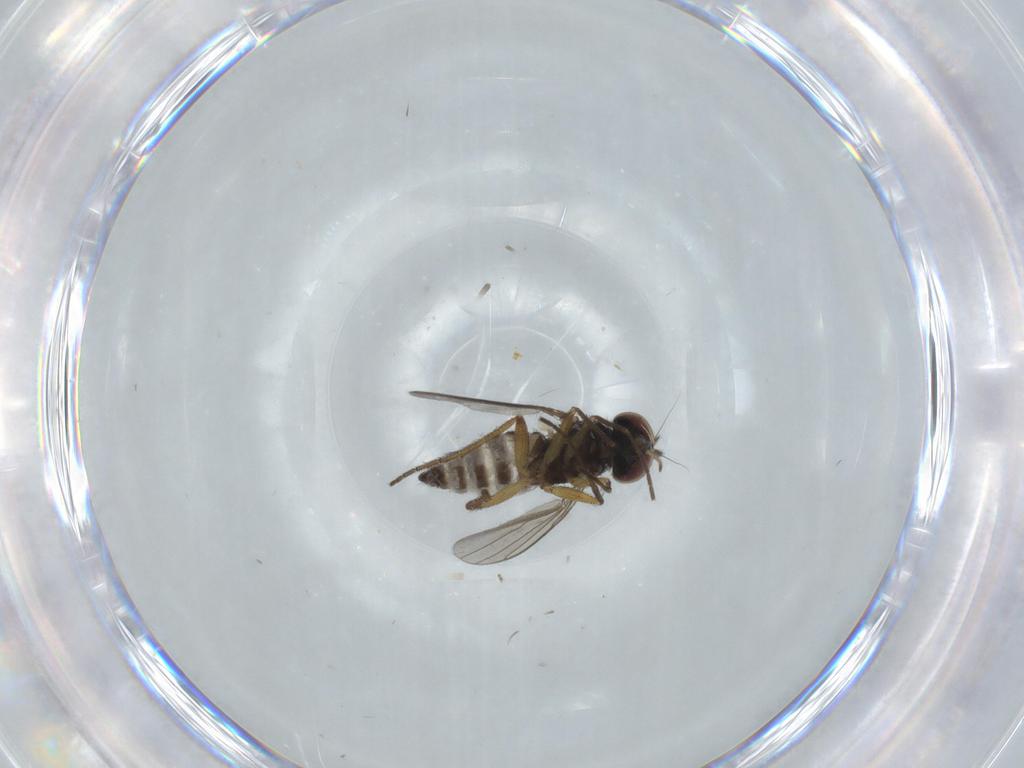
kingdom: Animalia
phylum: Arthropoda
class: Insecta
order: Diptera
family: Dolichopodidae
